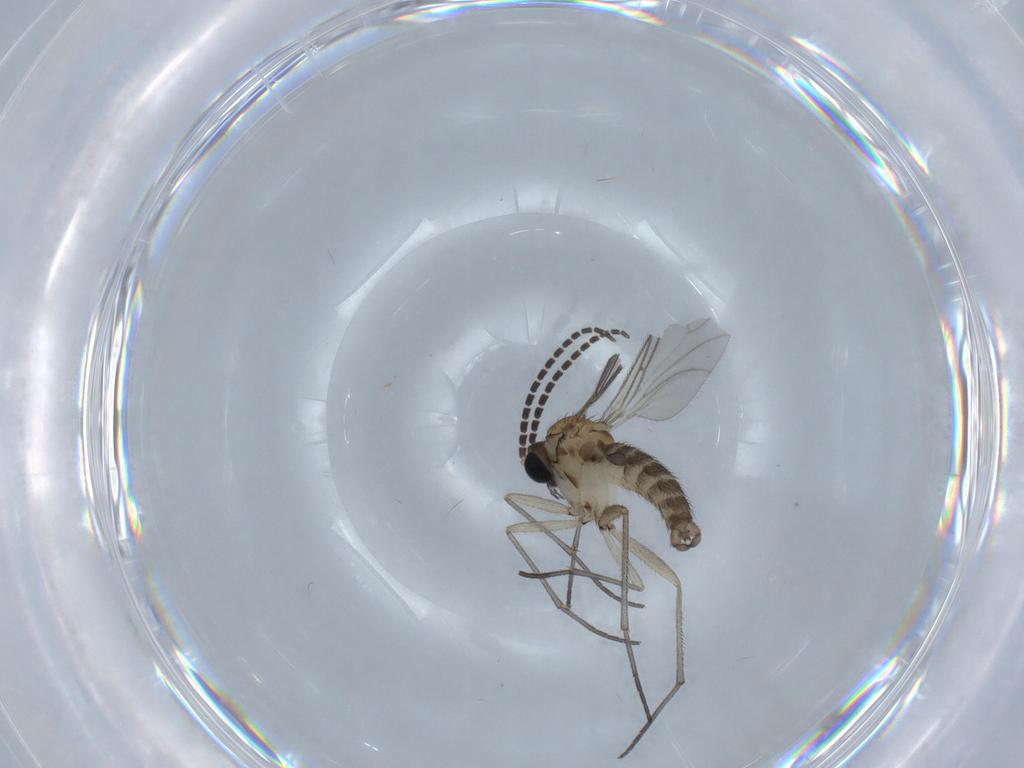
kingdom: Animalia
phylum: Arthropoda
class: Insecta
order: Diptera
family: Sciaridae
